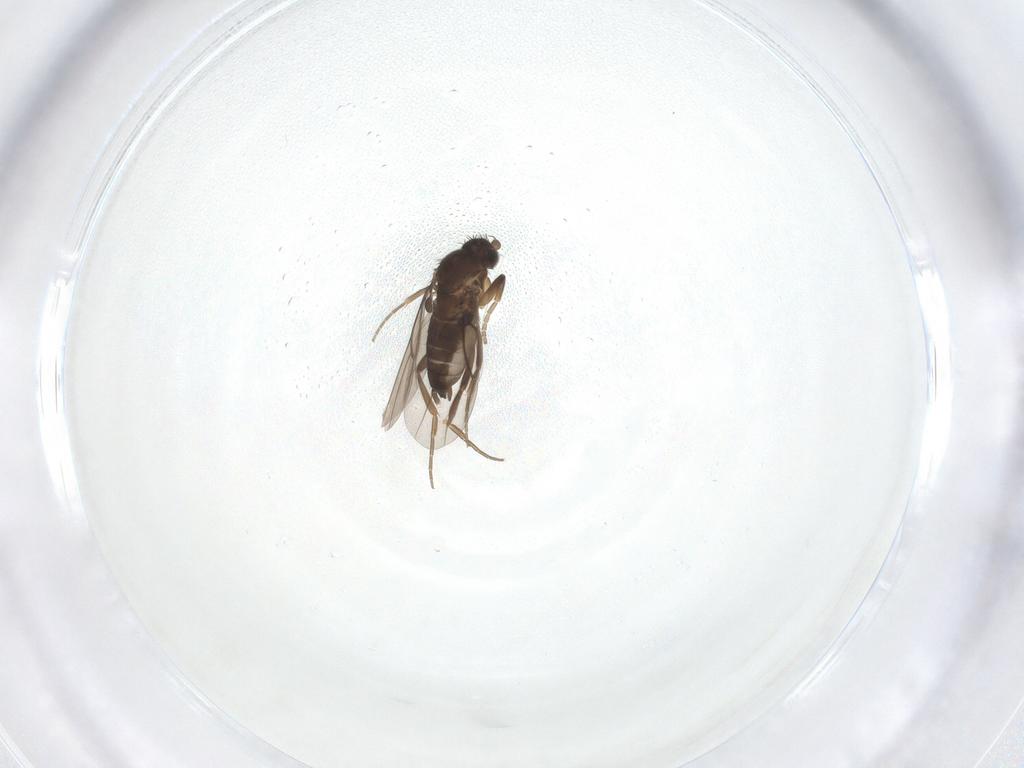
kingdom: Animalia
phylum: Arthropoda
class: Insecta
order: Diptera
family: Phoridae
